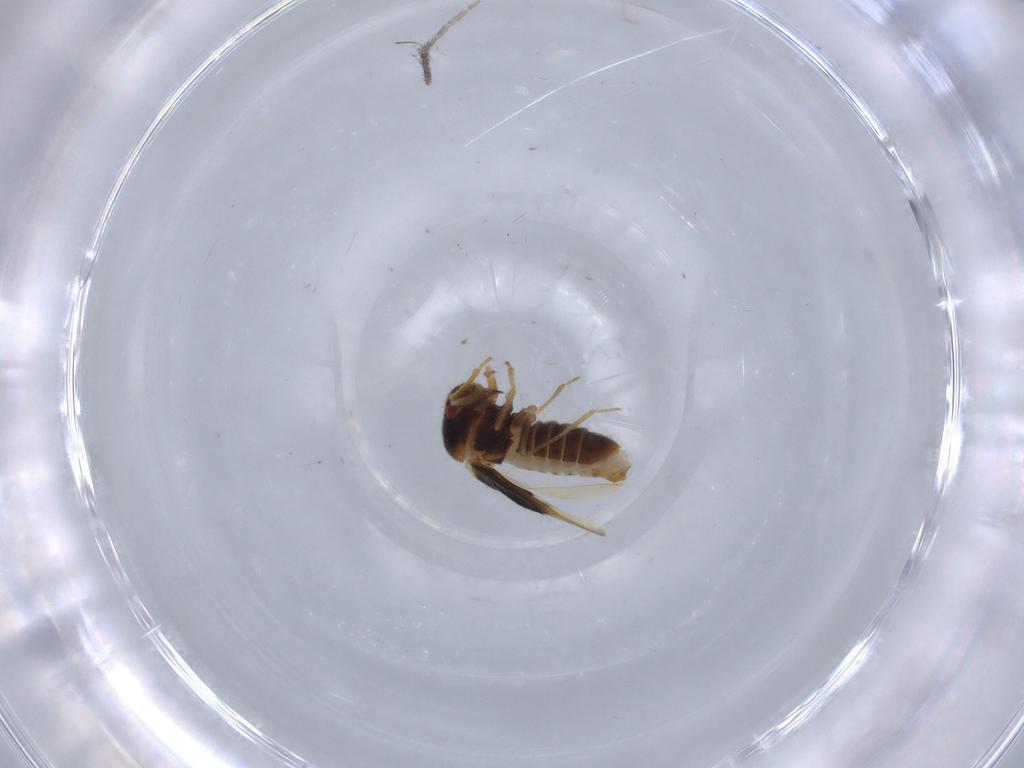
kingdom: Animalia
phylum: Arthropoda
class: Insecta
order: Hemiptera
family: Schizopteridae
